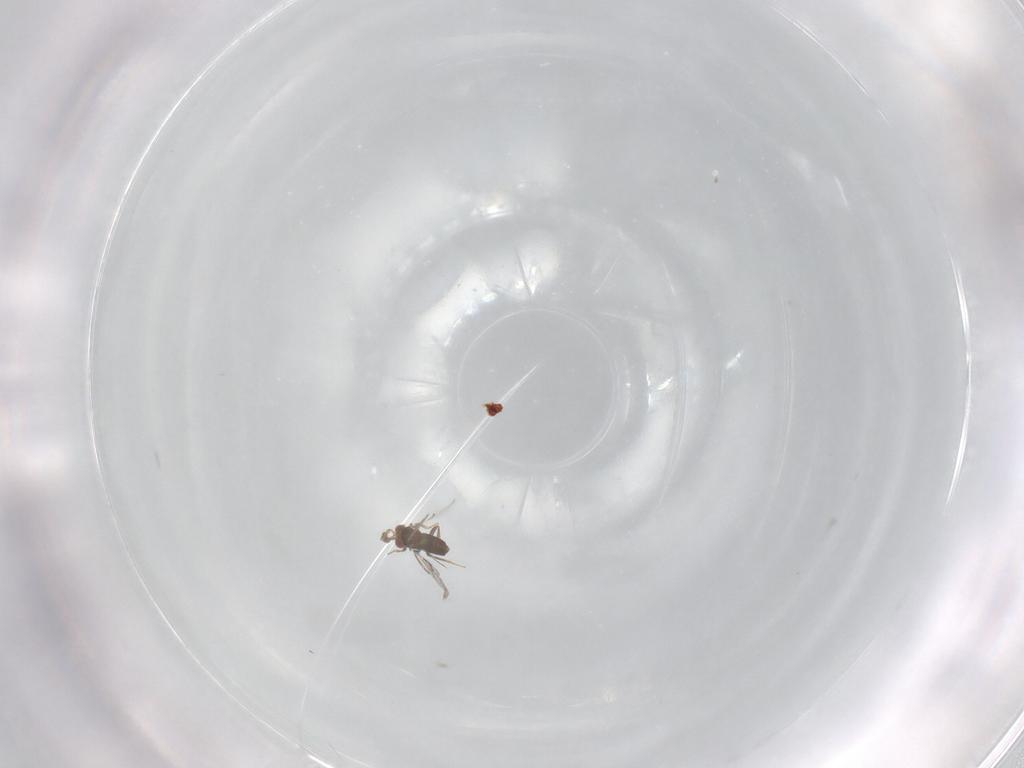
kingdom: Animalia
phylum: Arthropoda
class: Insecta
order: Hymenoptera
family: Trichogrammatidae
